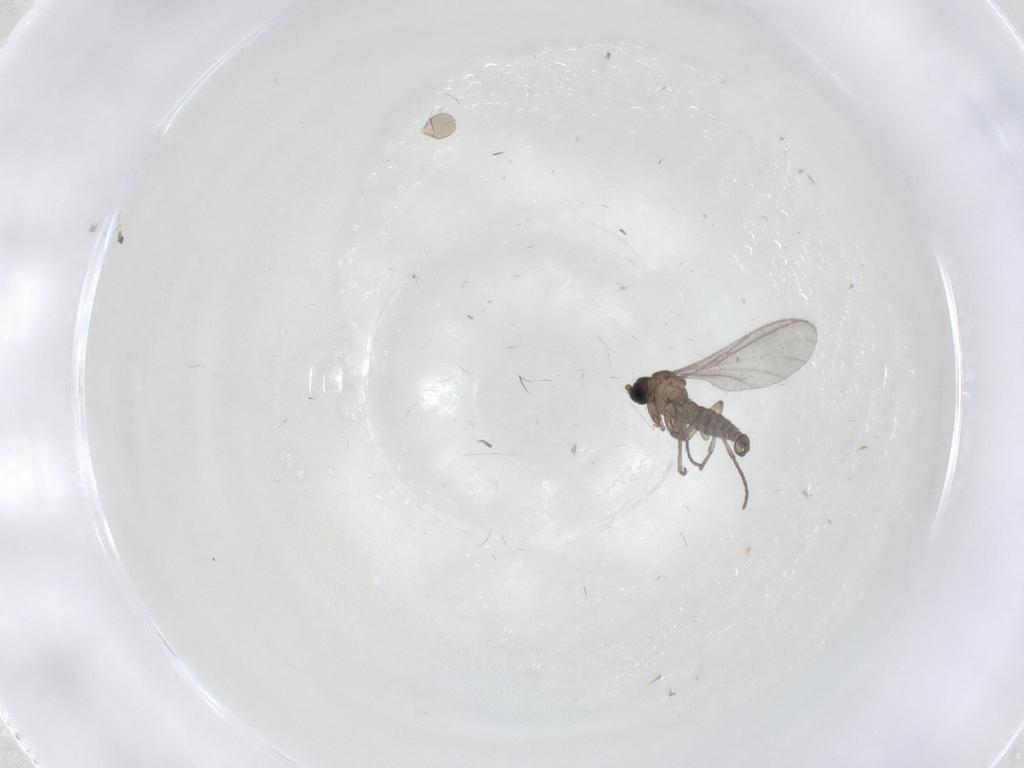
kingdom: Animalia
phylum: Arthropoda
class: Insecta
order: Diptera
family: Sciaridae
